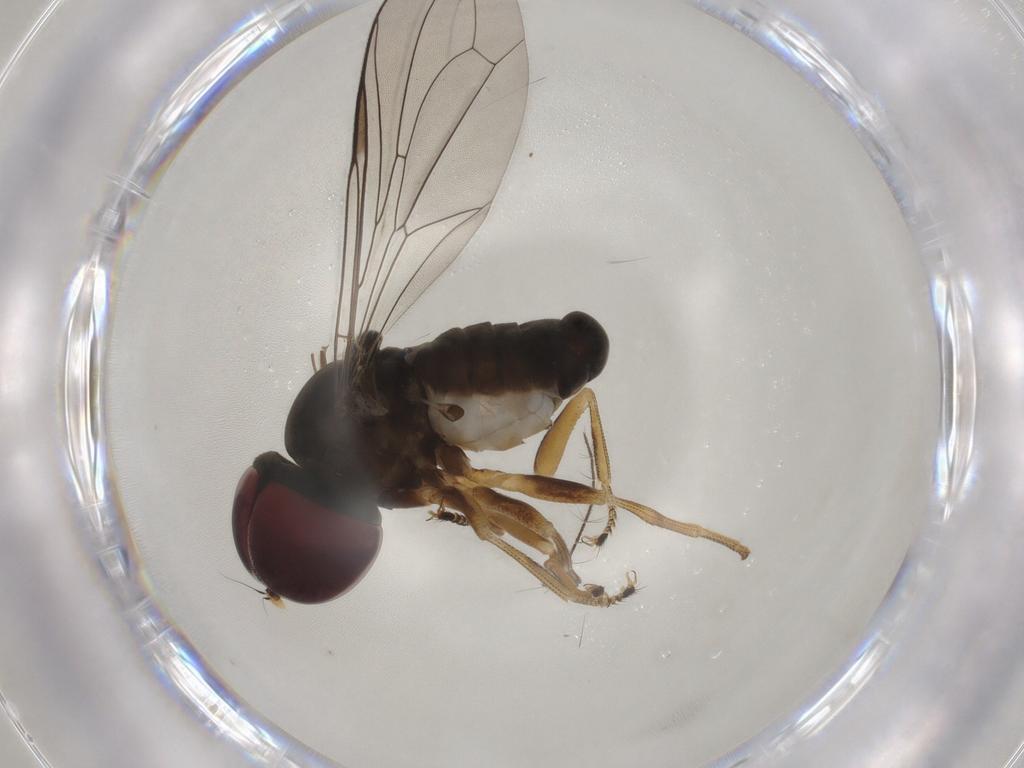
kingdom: Animalia
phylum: Arthropoda
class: Insecta
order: Diptera
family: Pipunculidae
